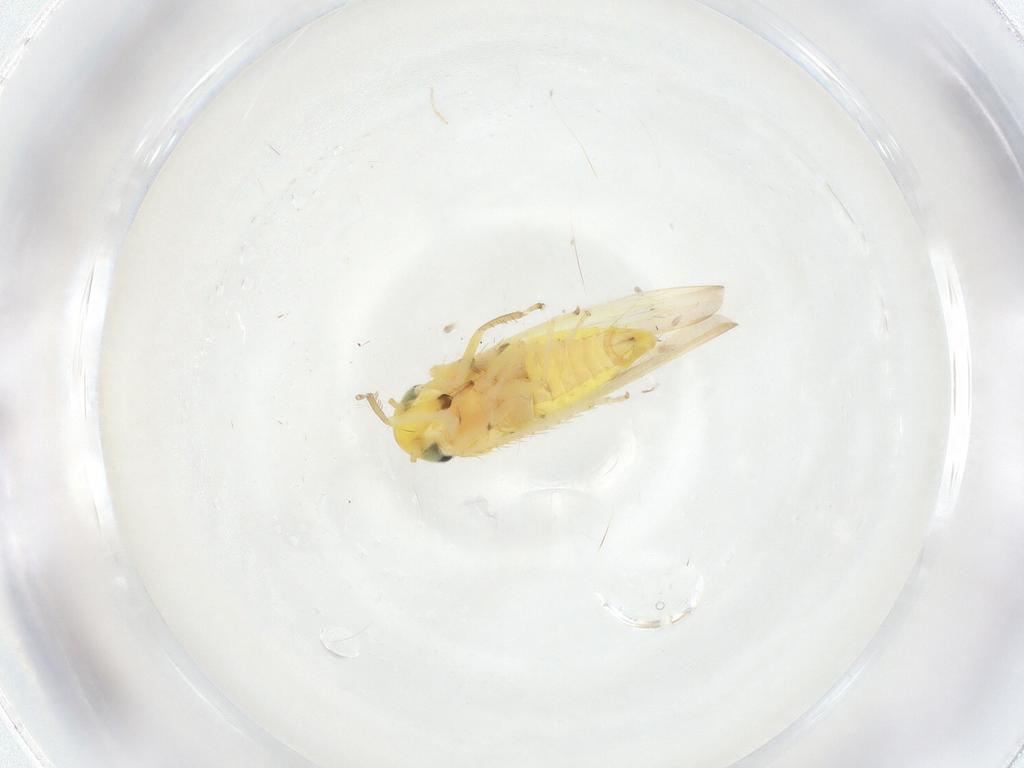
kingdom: Animalia
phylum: Arthropoda
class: Insecta
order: Hemiptera
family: Cicadellidae
